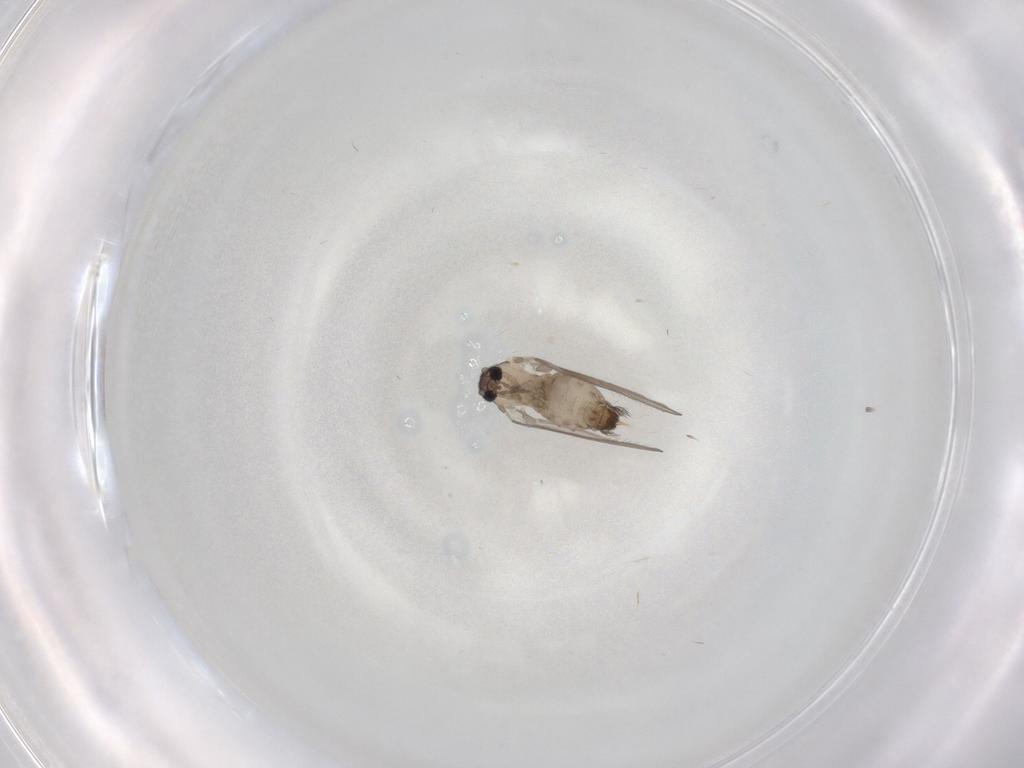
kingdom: Animalia
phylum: Arthropoda
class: Insecta
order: Diptera
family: Psychodidae
